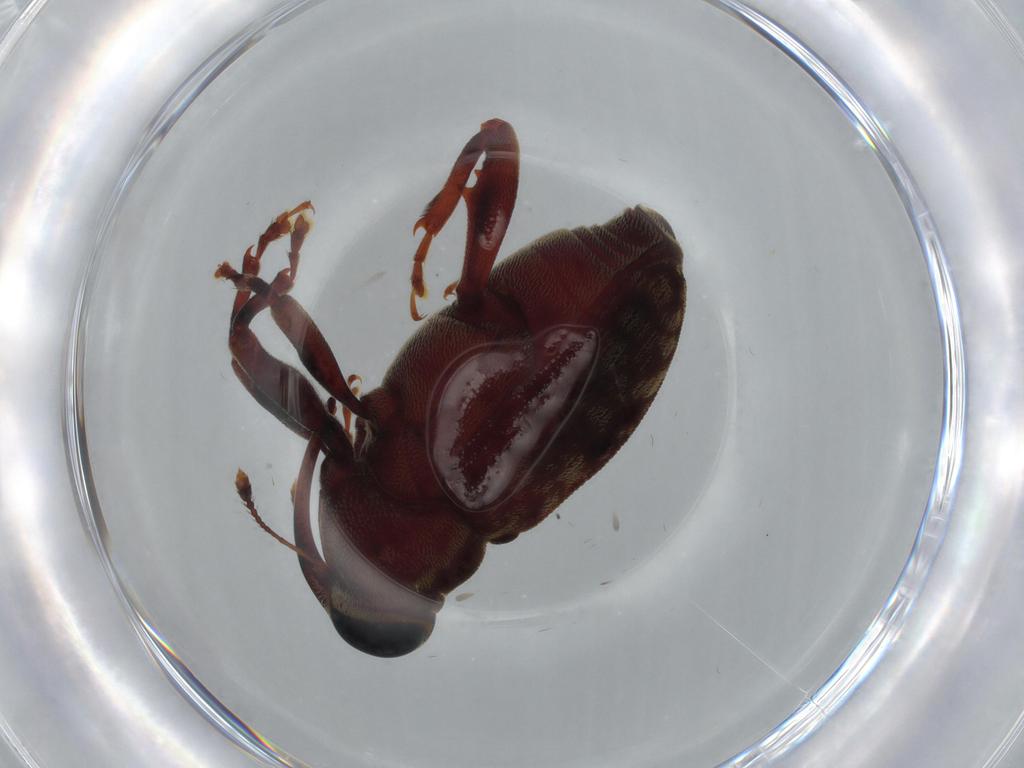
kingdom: Animalia
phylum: Arthropoda
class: Insecta
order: Coleoptera
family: Curculionidae
